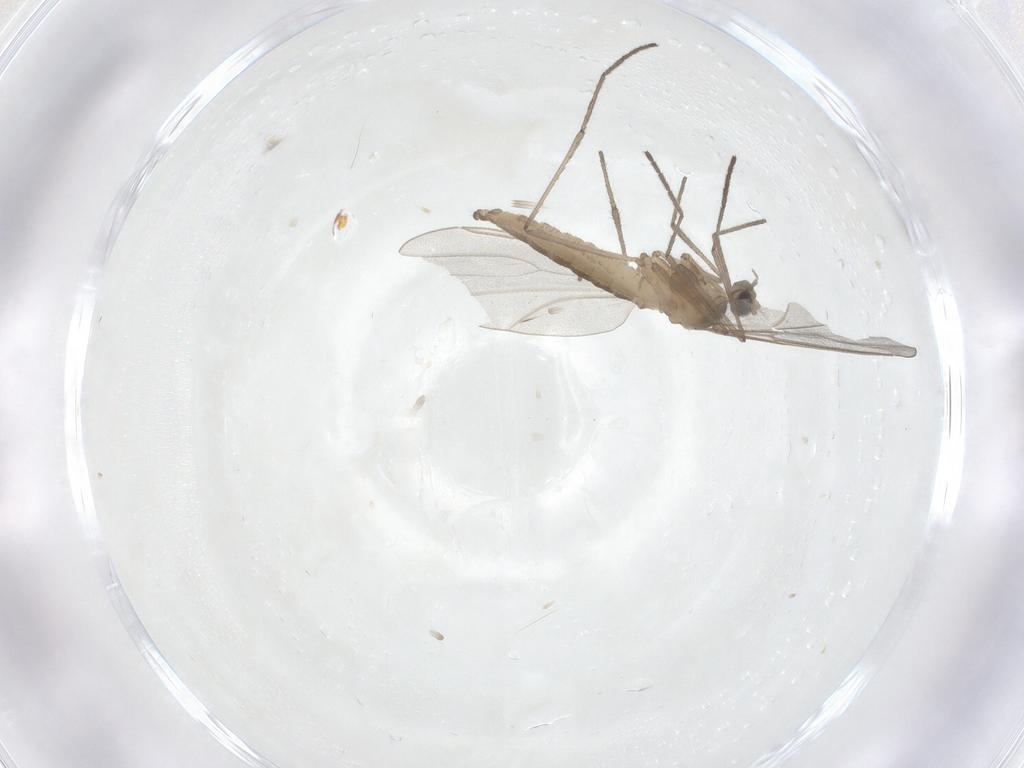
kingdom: Animalia
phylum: Arthropoda
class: Insecta
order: Diptera
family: Cecidomyiidae
